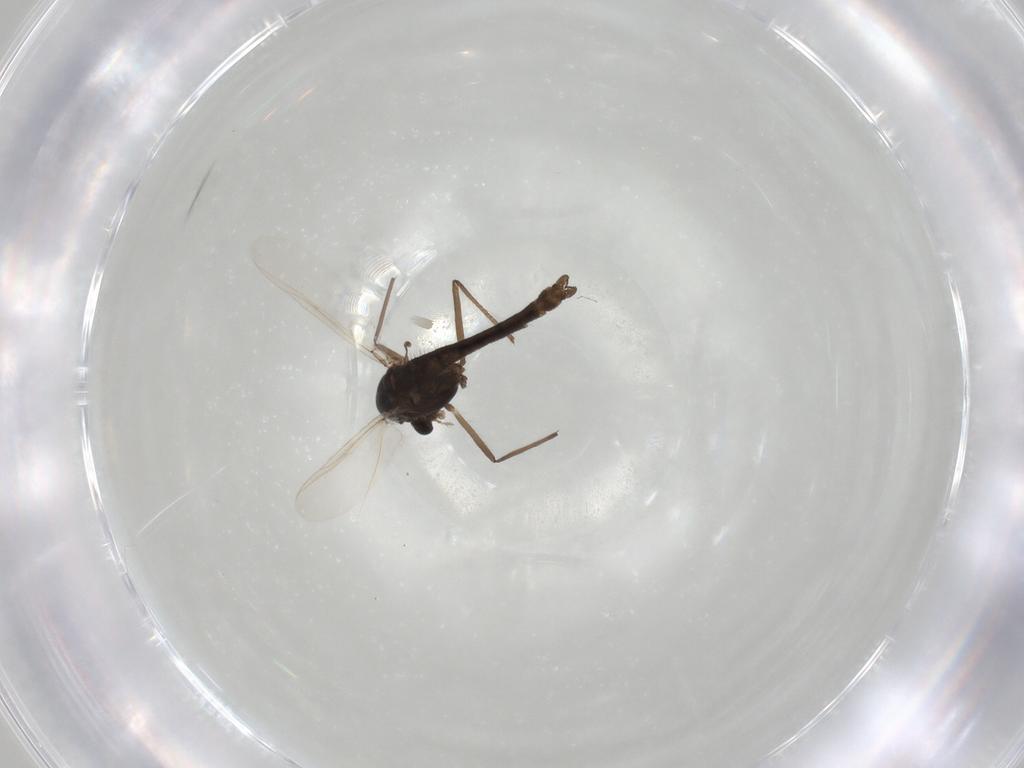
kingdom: Animalia
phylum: Arthropoda
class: Insecta
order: Diptera
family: Chironomidae
